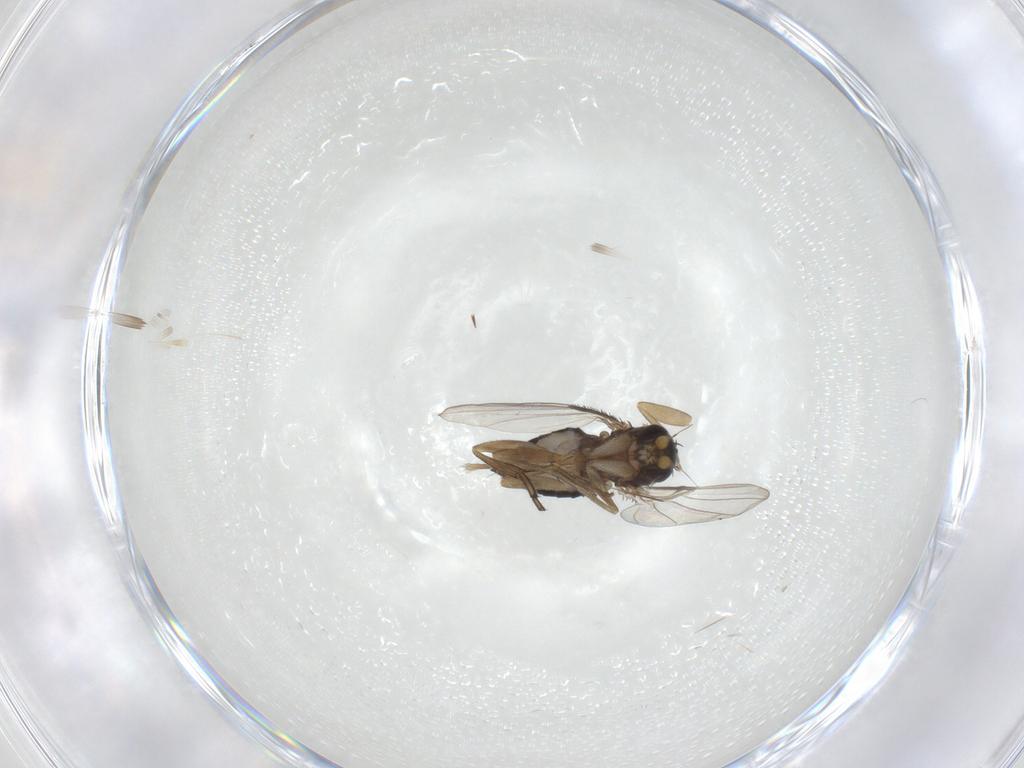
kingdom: Animalia
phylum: Arthropoda
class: Insecta
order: Diptera
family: Phoridae
